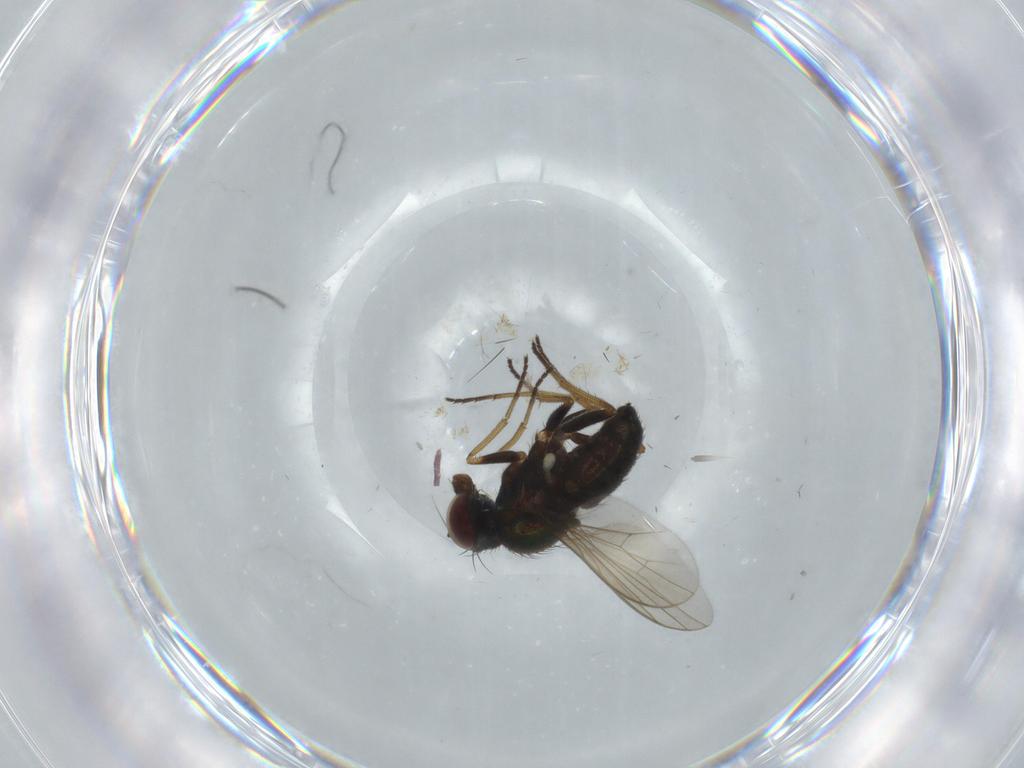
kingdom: Animalia
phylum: Arthropoda
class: Insecta
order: Diptera
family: Dolichopodidae
